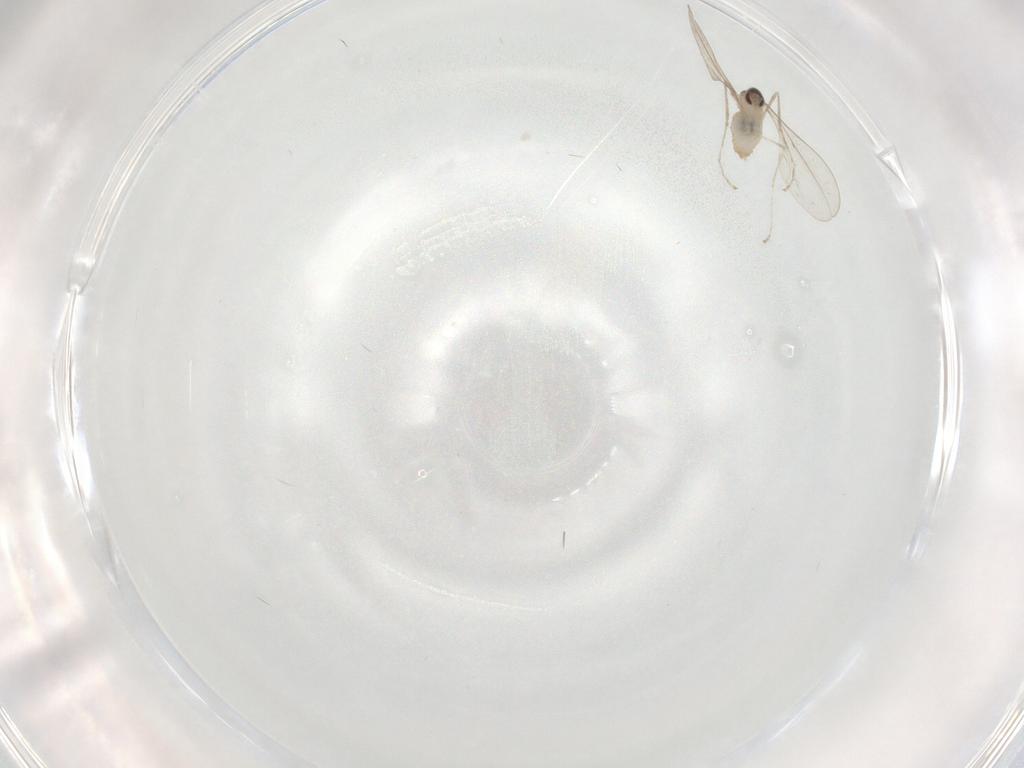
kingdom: Animalia
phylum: Arthropoda
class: Insecta
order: Diptera
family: Cecidomyiidae
